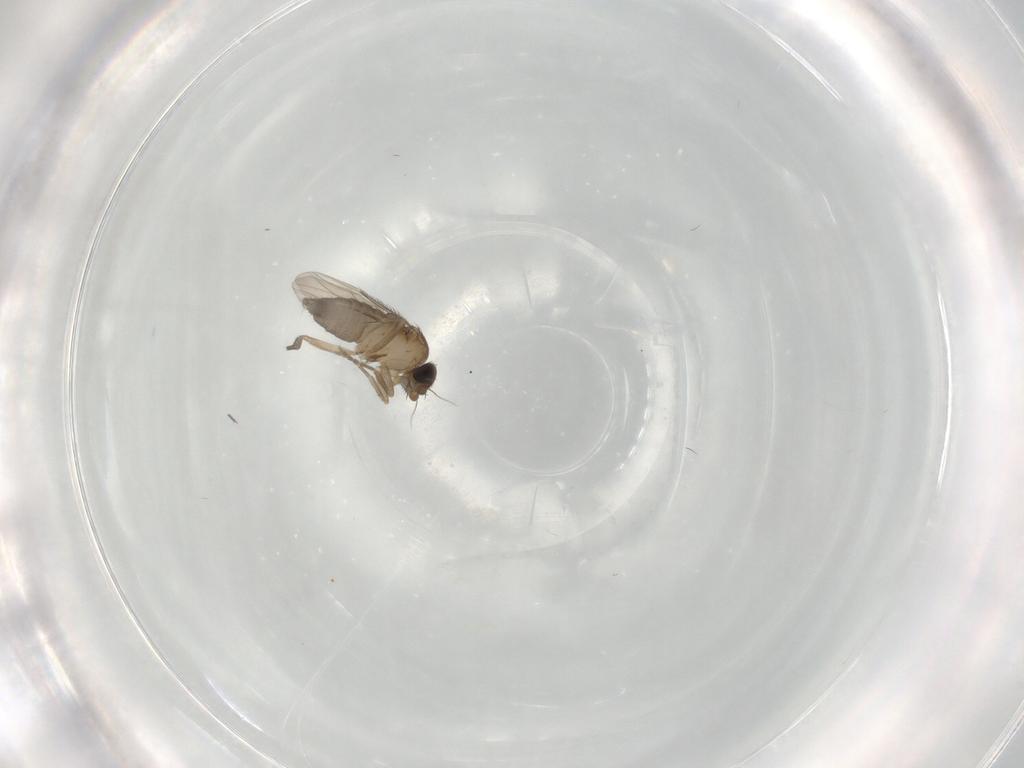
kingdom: Animalia
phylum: Arthropoda
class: Insecta
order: Diptera
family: Phoridae
